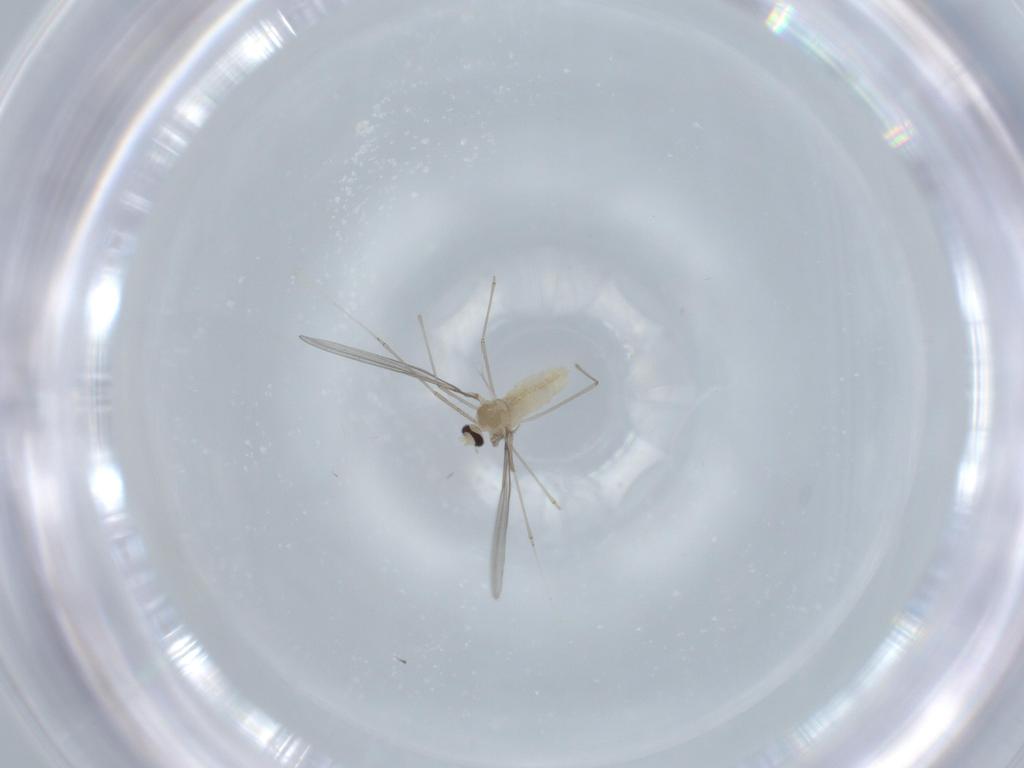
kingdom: Animalia
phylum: Arthropoda
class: Insecta
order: Diptera
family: Cecidomyiidae
